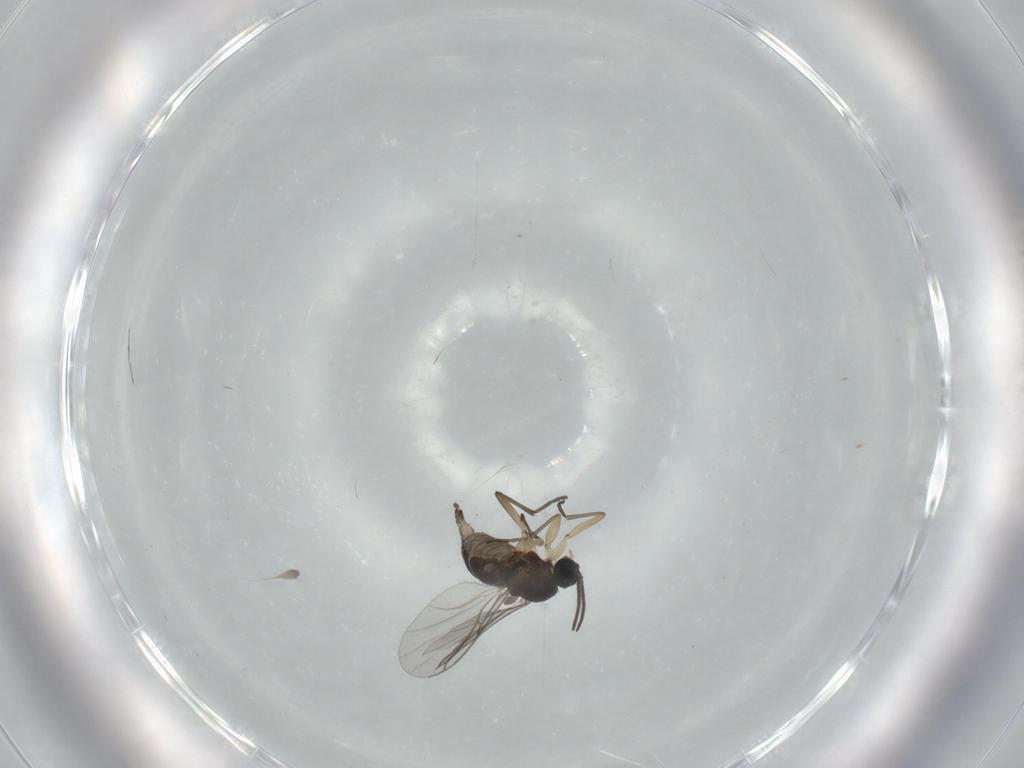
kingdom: Animalia
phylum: Arthropoda
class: Insecta
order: Diptera
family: Sciaridae
